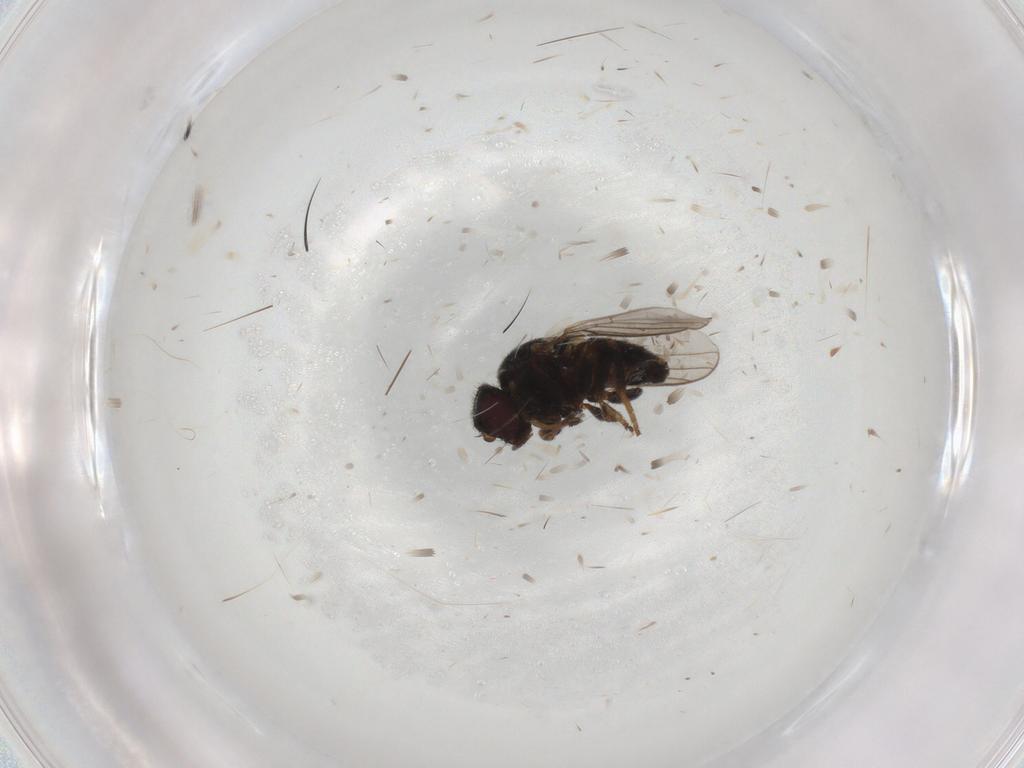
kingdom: Animalia
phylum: Arthropoda
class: Insecta
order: Diptera
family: Chloropidae
